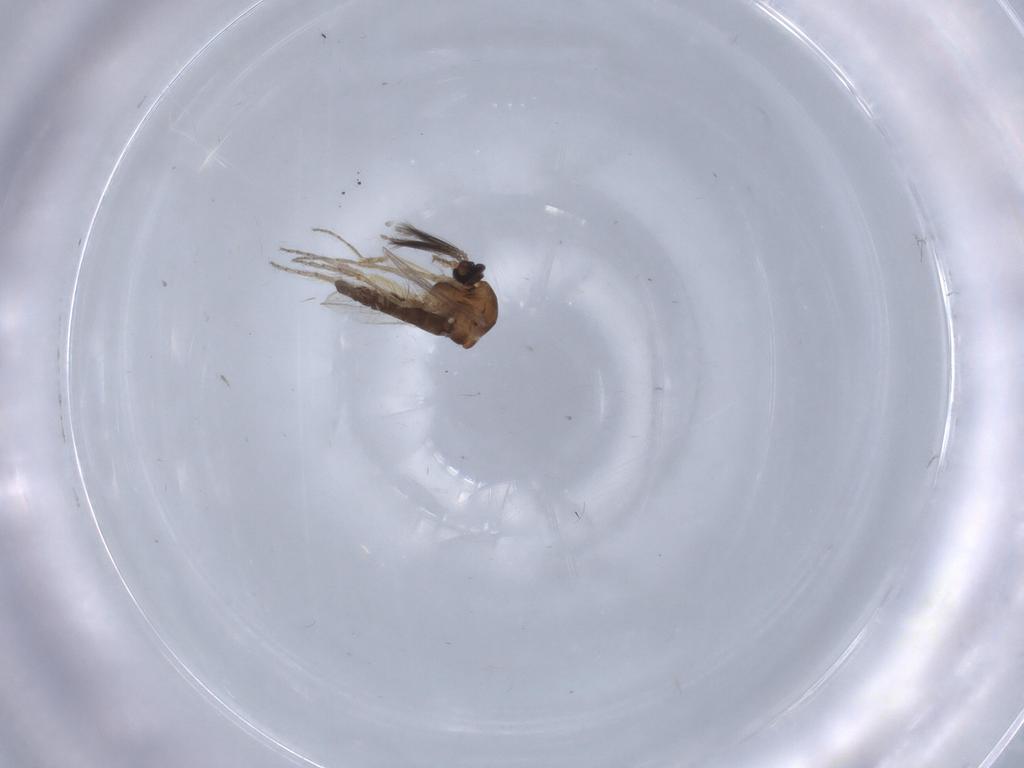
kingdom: Animalia
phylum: Arthropoda
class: Insecta
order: Diptera
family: Ceratopogonidae
